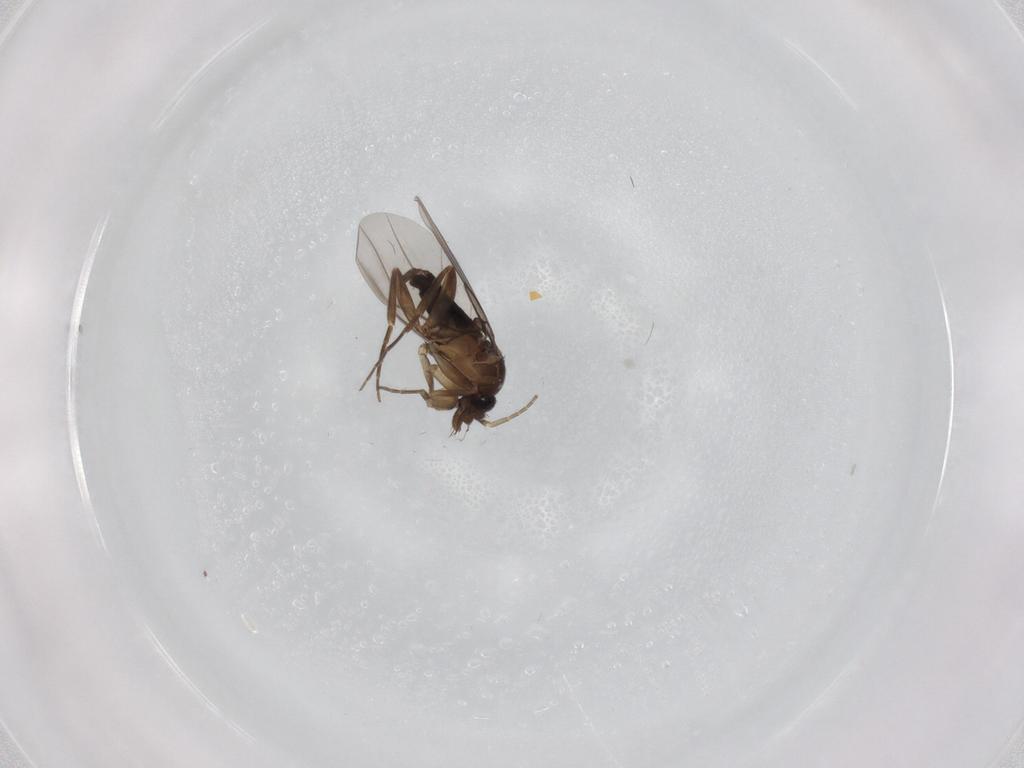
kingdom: Animalia
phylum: Arthropoda
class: Insecta
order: Diptera
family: Phoridae
